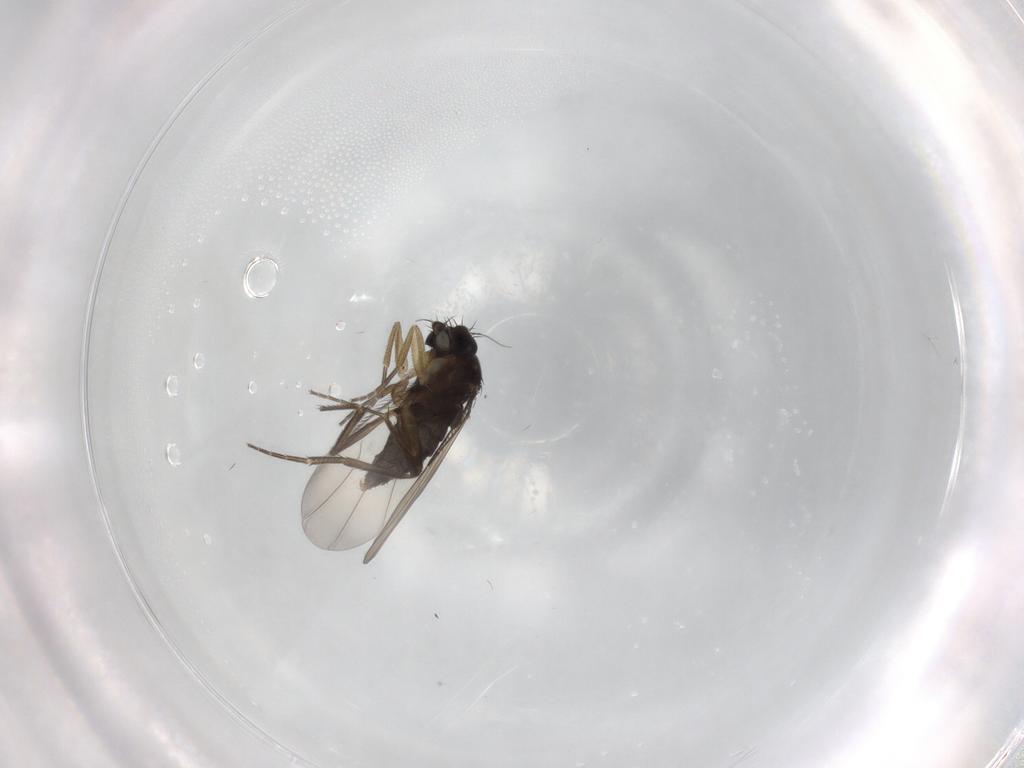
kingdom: Animalia
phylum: Arthropoda
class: Insecta
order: Diptera
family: Phoridae
